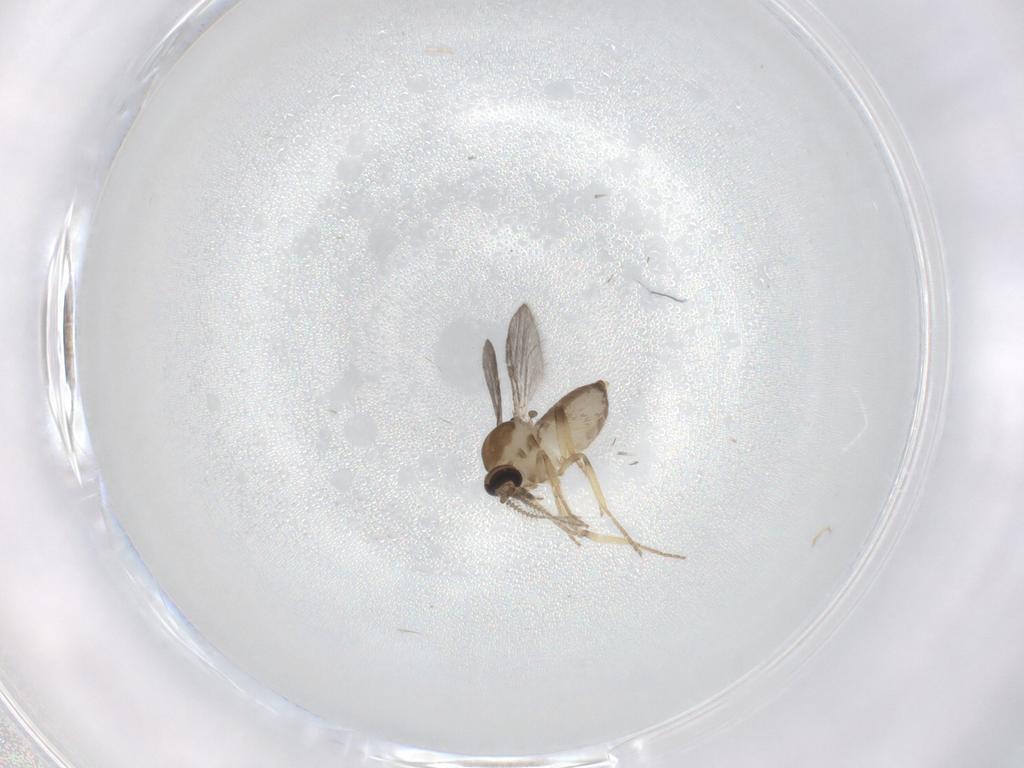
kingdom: Animalia
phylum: Arthropoda
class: Insecta
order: Diptera
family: Ceratopogonidae
